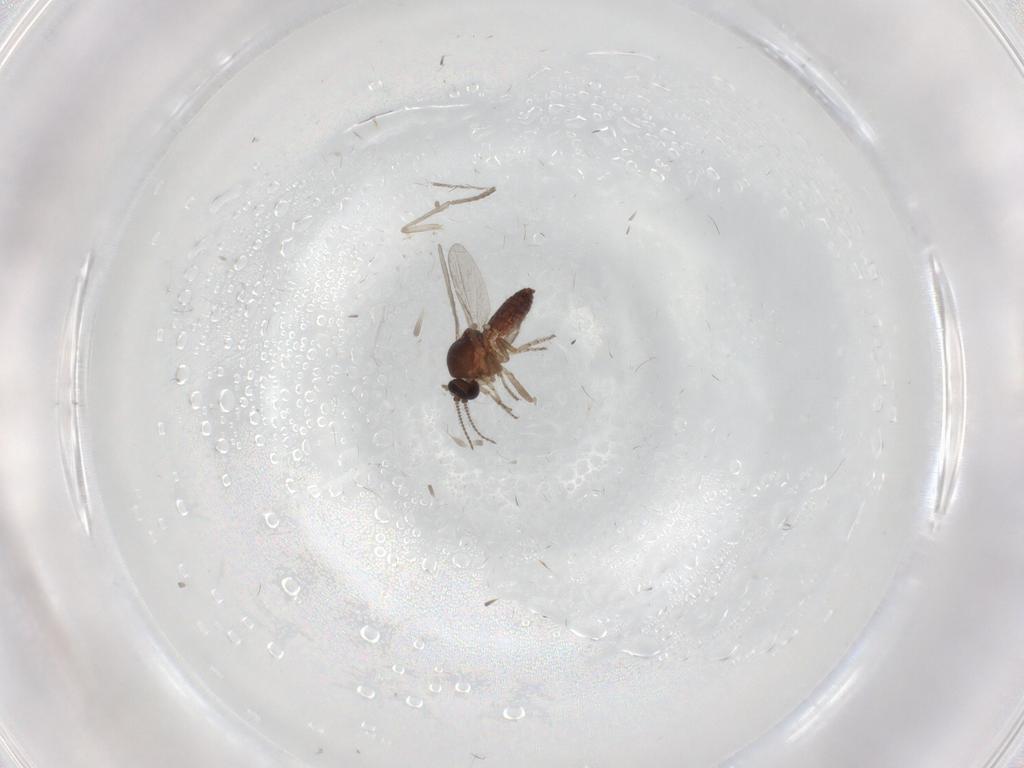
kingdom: Animalia
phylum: Arthropoda
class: Insecta
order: Diptera
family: Ceratopogonidae
